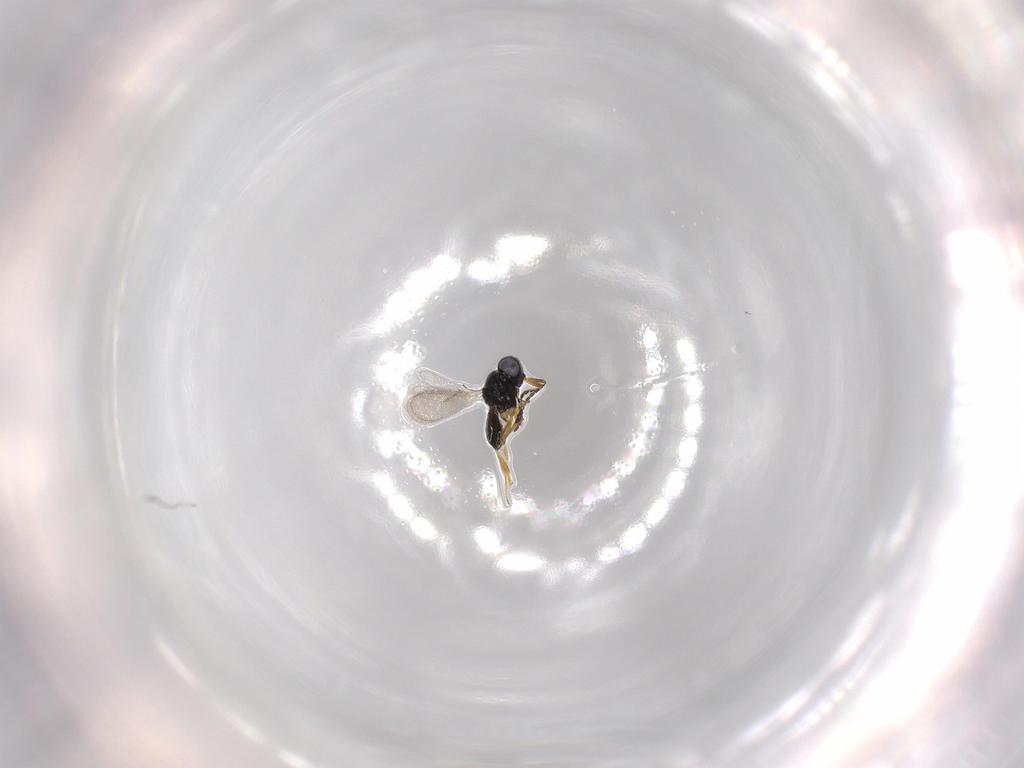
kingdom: Animalia
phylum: Arthropoda
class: Insecta
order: Hymenoptera
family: Scelionidae
